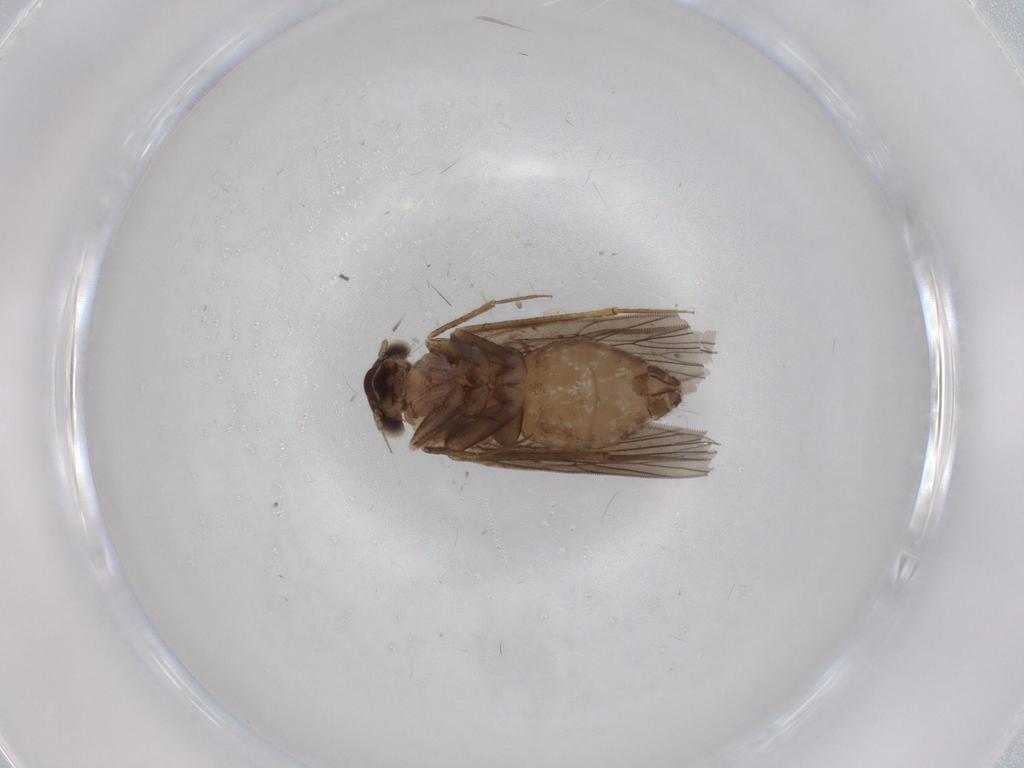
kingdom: Animalia
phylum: Arthropoda
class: Insecta
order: Psocodea
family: Lepidopsocidae
